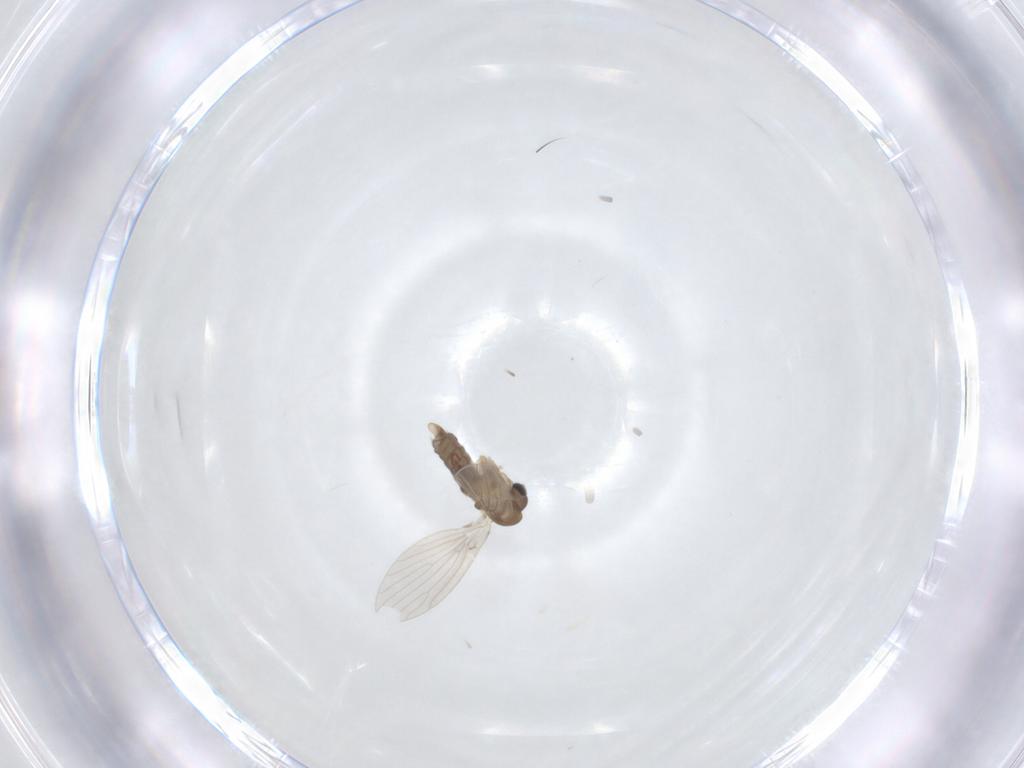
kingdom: Animalia
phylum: Arthropoda
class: Insecta
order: Diptera
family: Psychodidae
